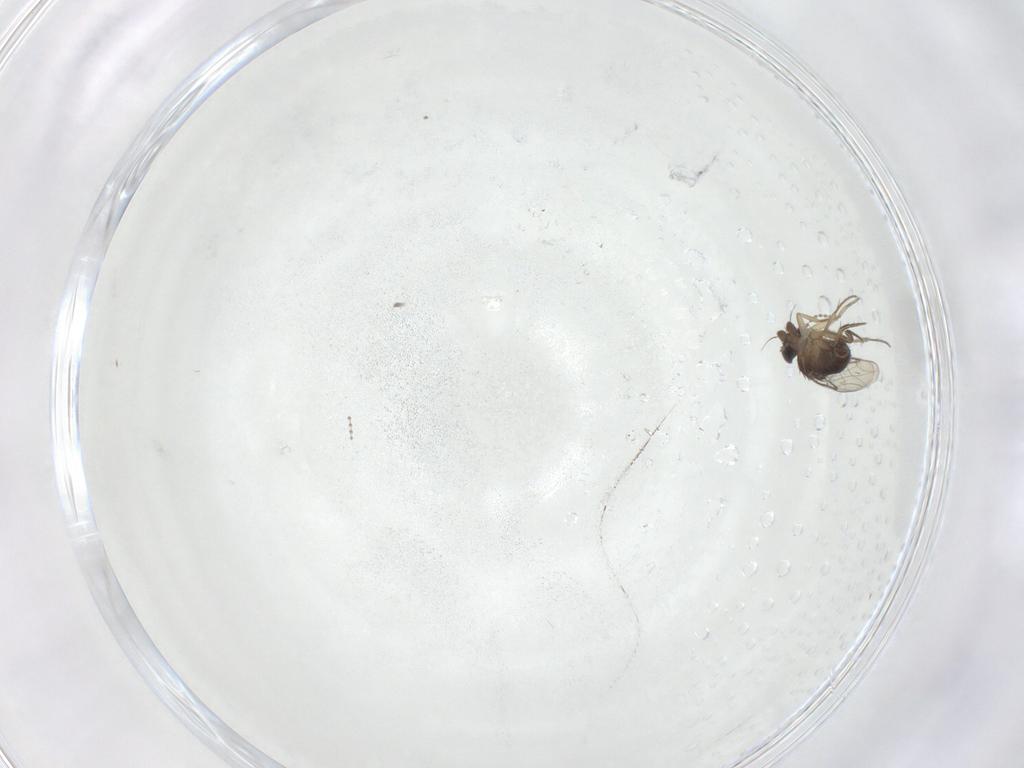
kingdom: Animalia
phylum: Arthropoda
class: Insecta
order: Diptera
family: Cecidomyiidae
